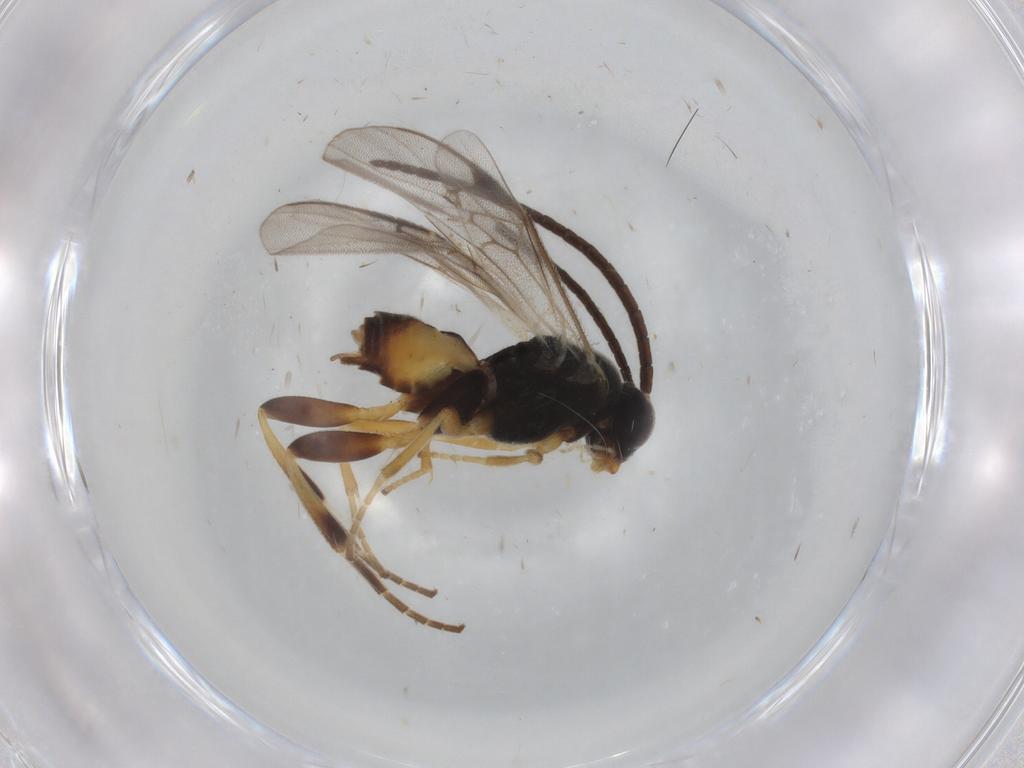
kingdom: Animalia
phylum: Arthropoda
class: Insecta
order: Hymenoptera
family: Braconidae
